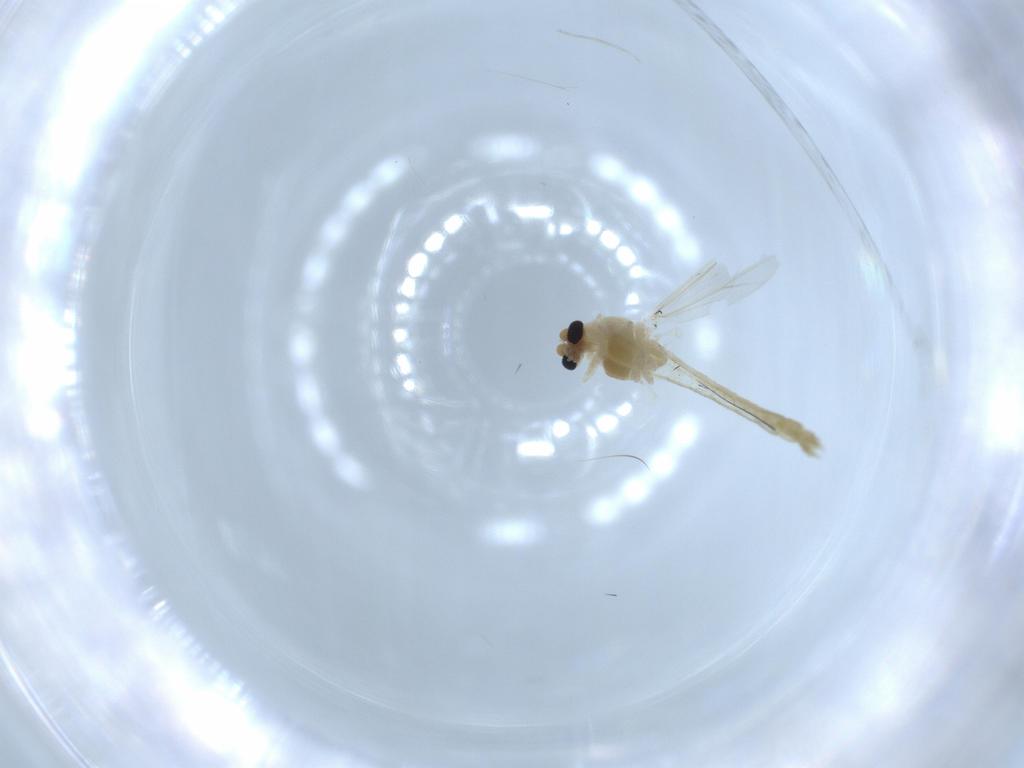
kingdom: Animalia
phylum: Arthropoda
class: Insecta
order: Diptera
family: Chironomidae
